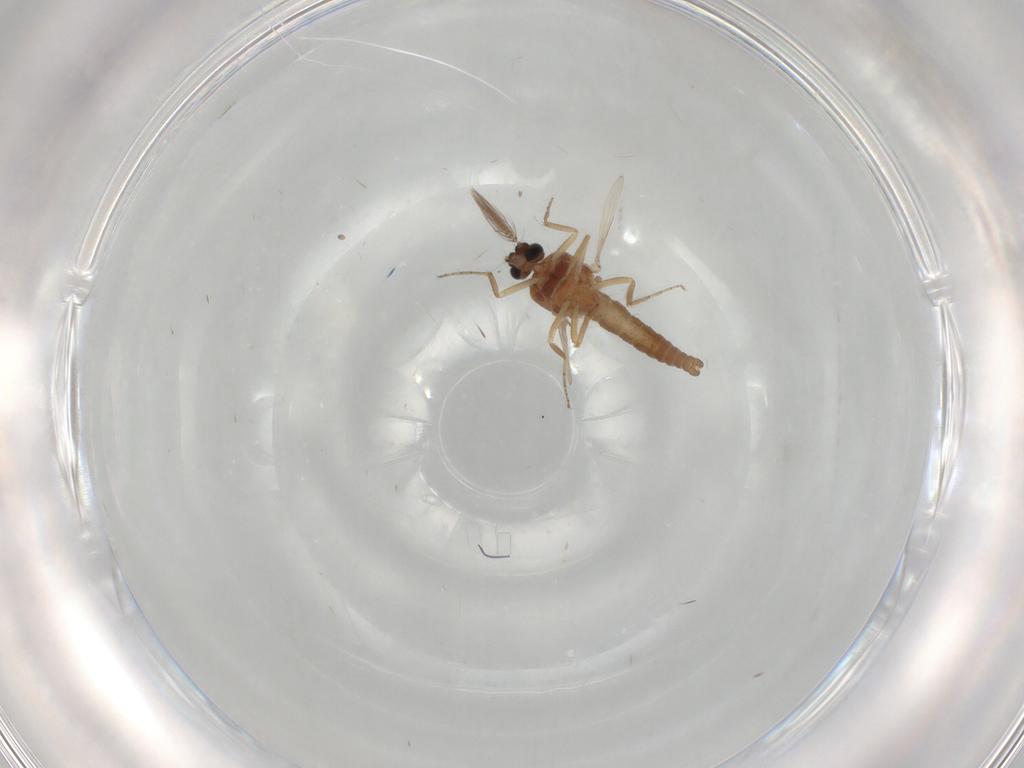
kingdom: Animalia
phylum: Arthropoda
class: Insecta
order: Diptera
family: Ceratopogonidae
